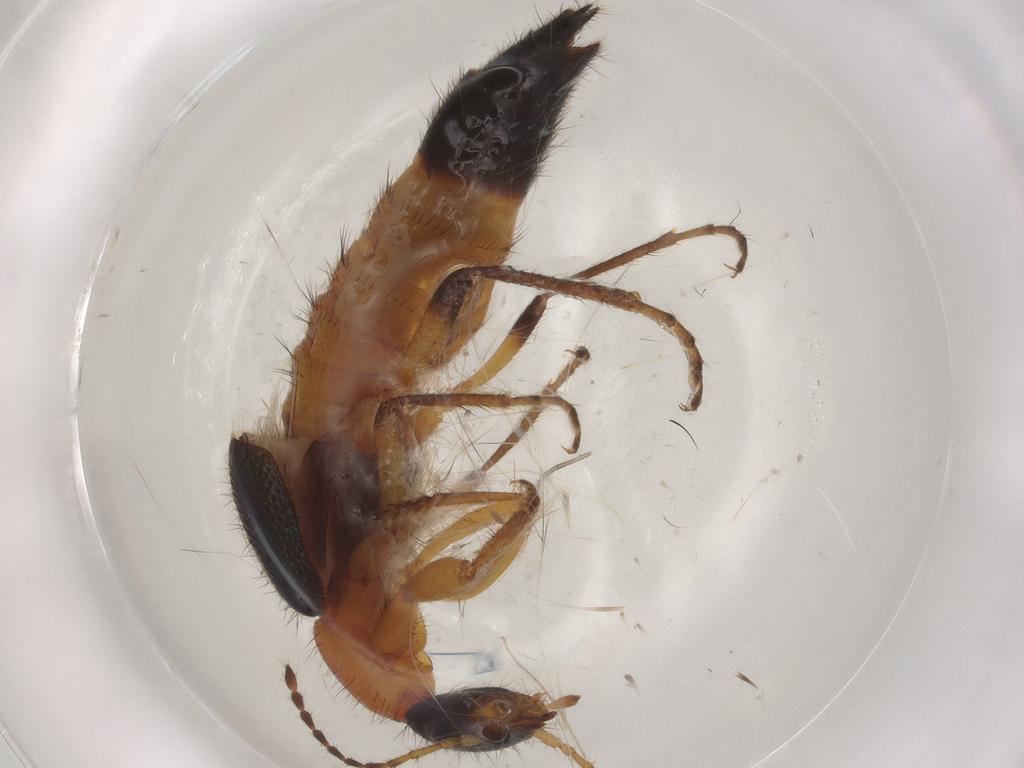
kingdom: Animalia
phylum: Arthropoda
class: Insecta
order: Coleoptera
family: Staphylinidae
